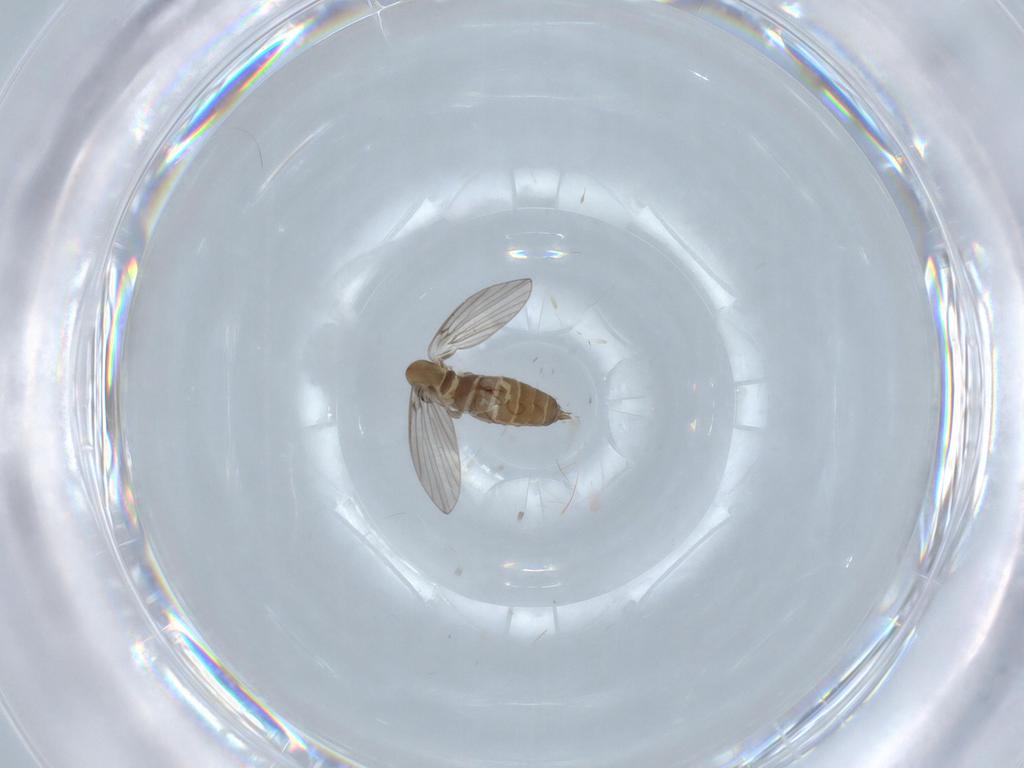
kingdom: Animalia
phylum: Arthropoda
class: Insecta
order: Diptera
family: Psychodidae
